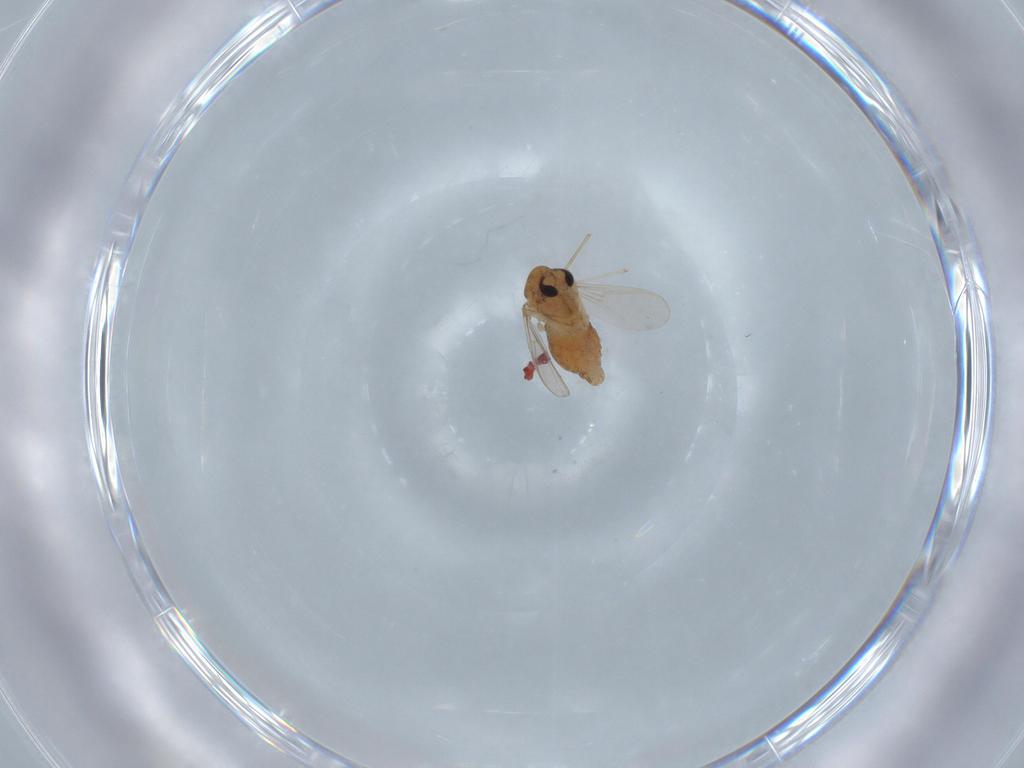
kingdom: Animalia
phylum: Arthropoda
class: Insecta
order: Diptera
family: Chironomidae
